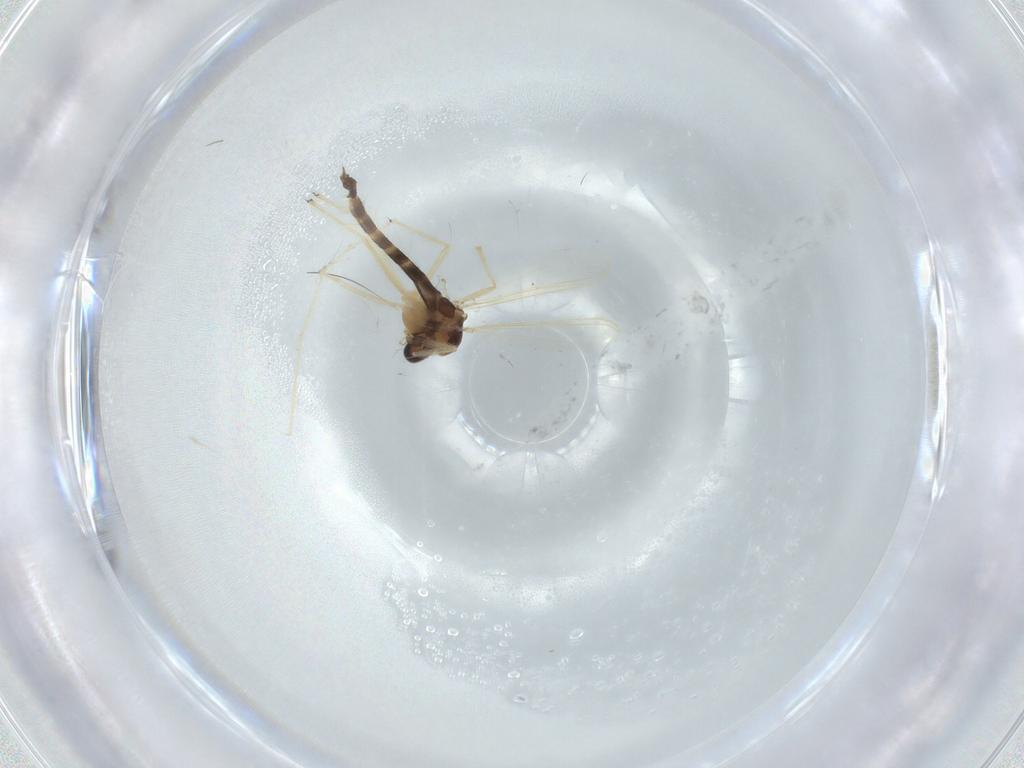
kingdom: Animalia
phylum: Arthropoda
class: Insecta
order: Diptera
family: Chironomidae
